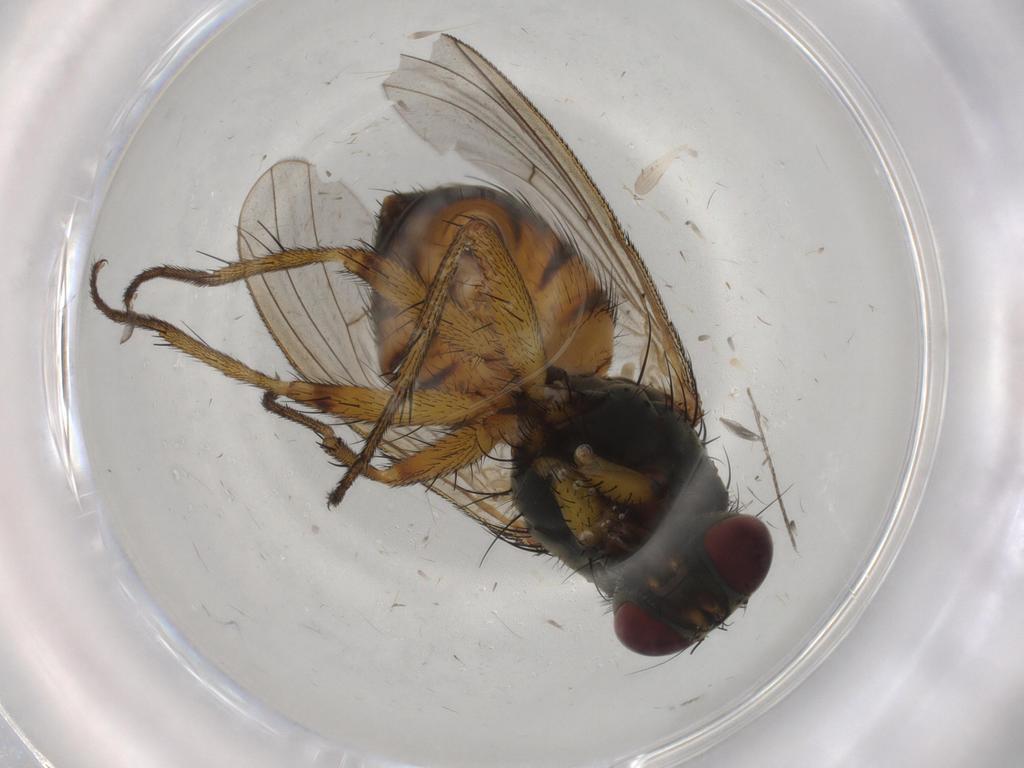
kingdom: Animalia
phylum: Arthropoda
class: Insecta
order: Diptera
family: Muscidae
